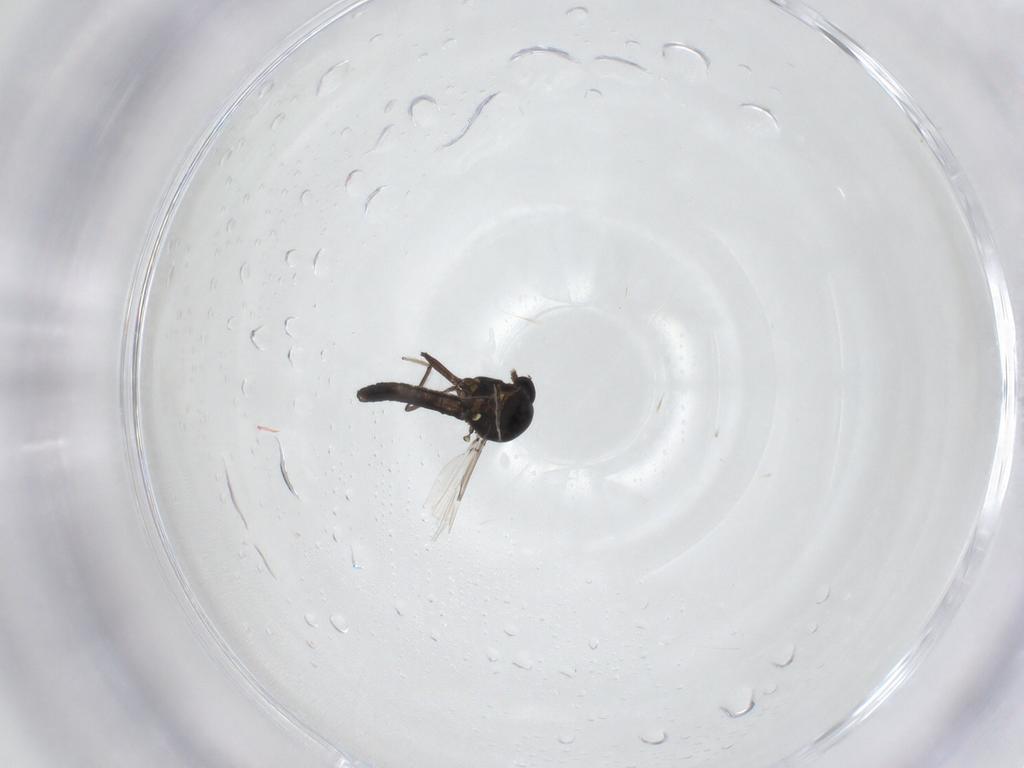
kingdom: Animalia
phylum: Arthropoda
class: Insecta
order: Diptera
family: Ceratopogonidae
